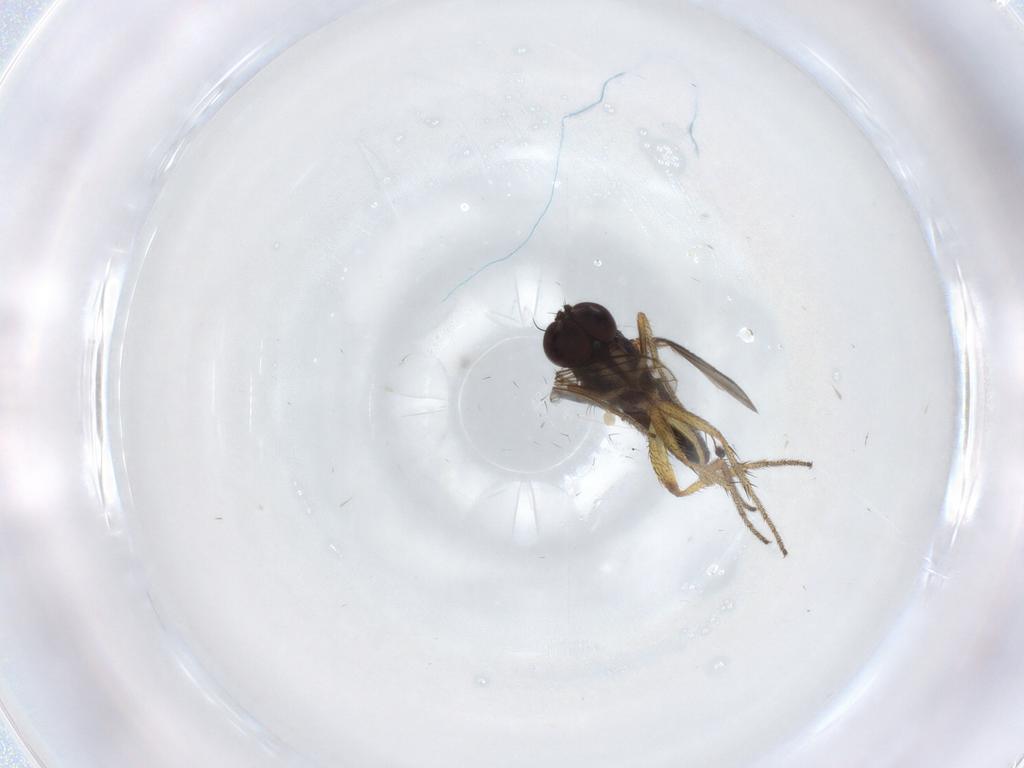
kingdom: Animalia
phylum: Arthropoda
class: Insecta
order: Diptera
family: Dolichopodidae
